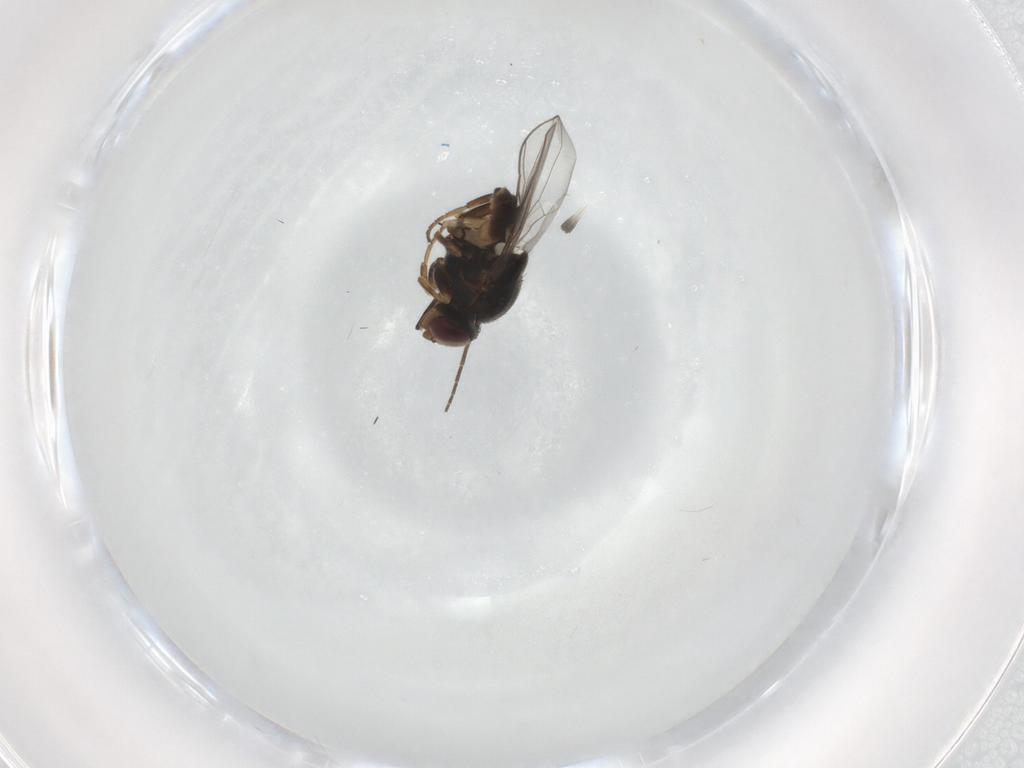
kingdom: Animalia
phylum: Arthropoda
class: Insecta
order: Diptera
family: Chloropidae
